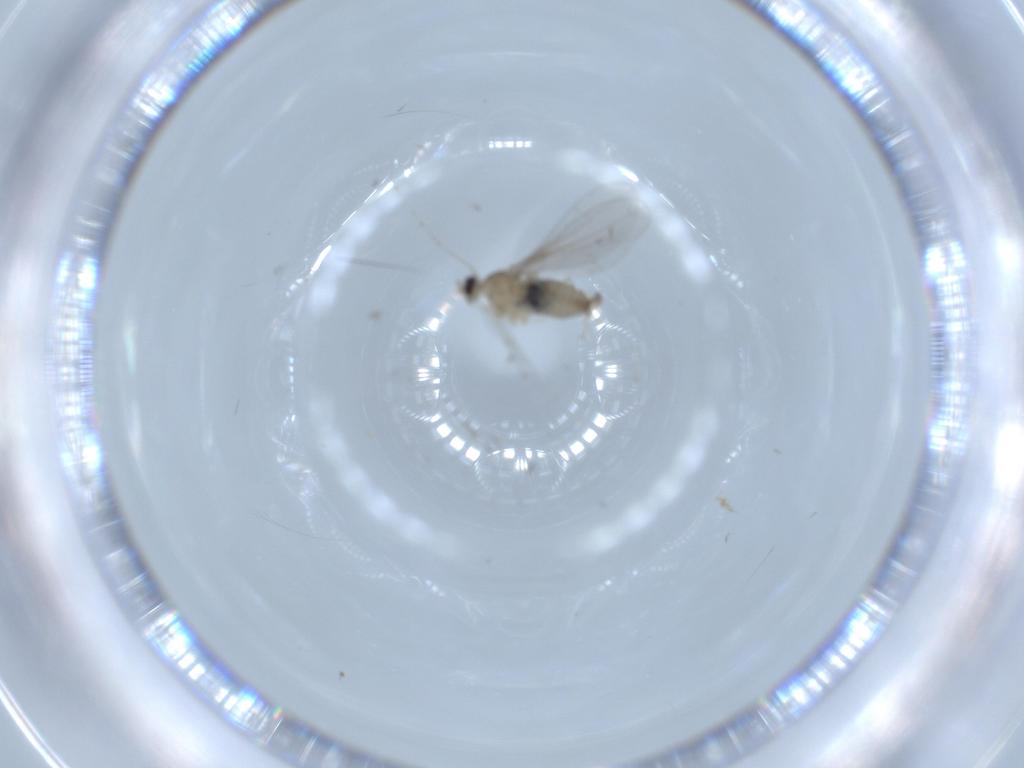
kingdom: Animalia
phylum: Arthropoda
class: Insecta
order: Diptera
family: Cecidomyiidae
